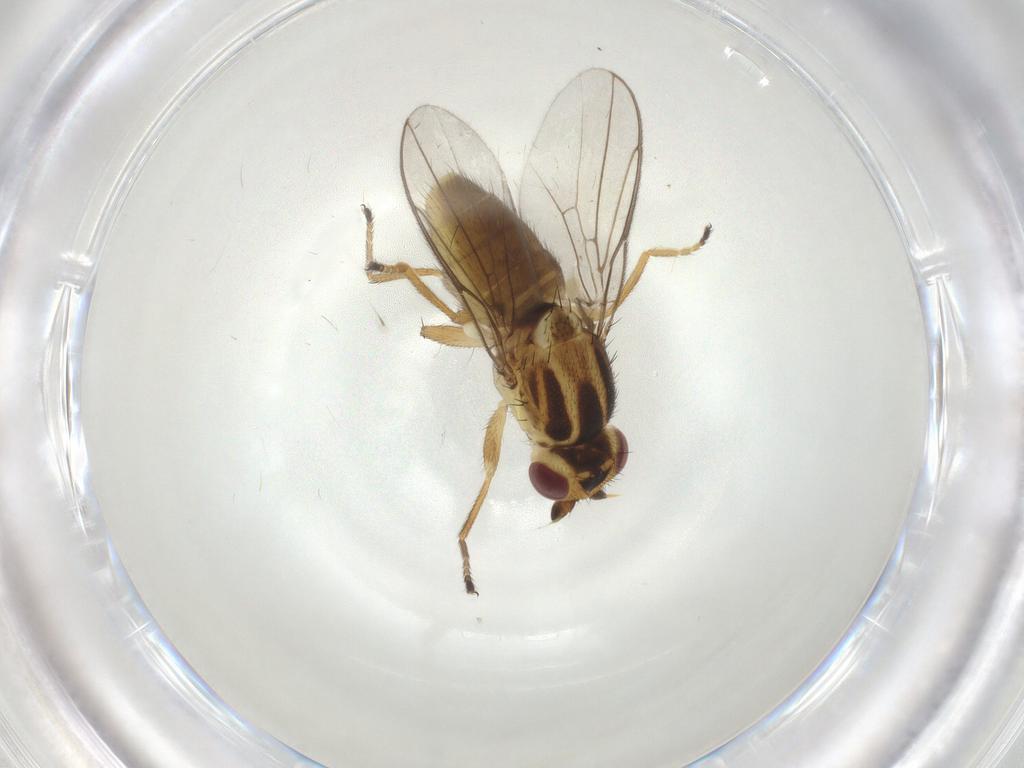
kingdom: Animalia
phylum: Arthropoda
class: Insecta
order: Diptera
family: Chloropidae
